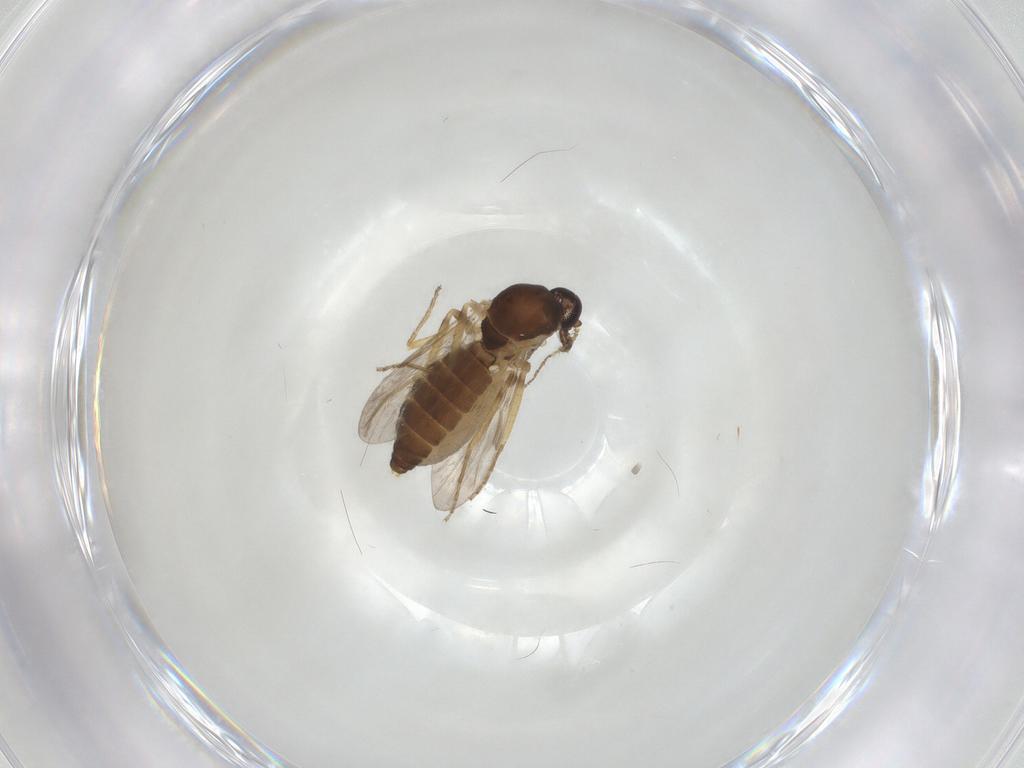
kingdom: Animalia
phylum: Arthropoda
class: Insecta
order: Diptera
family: Ceratopogonidae
